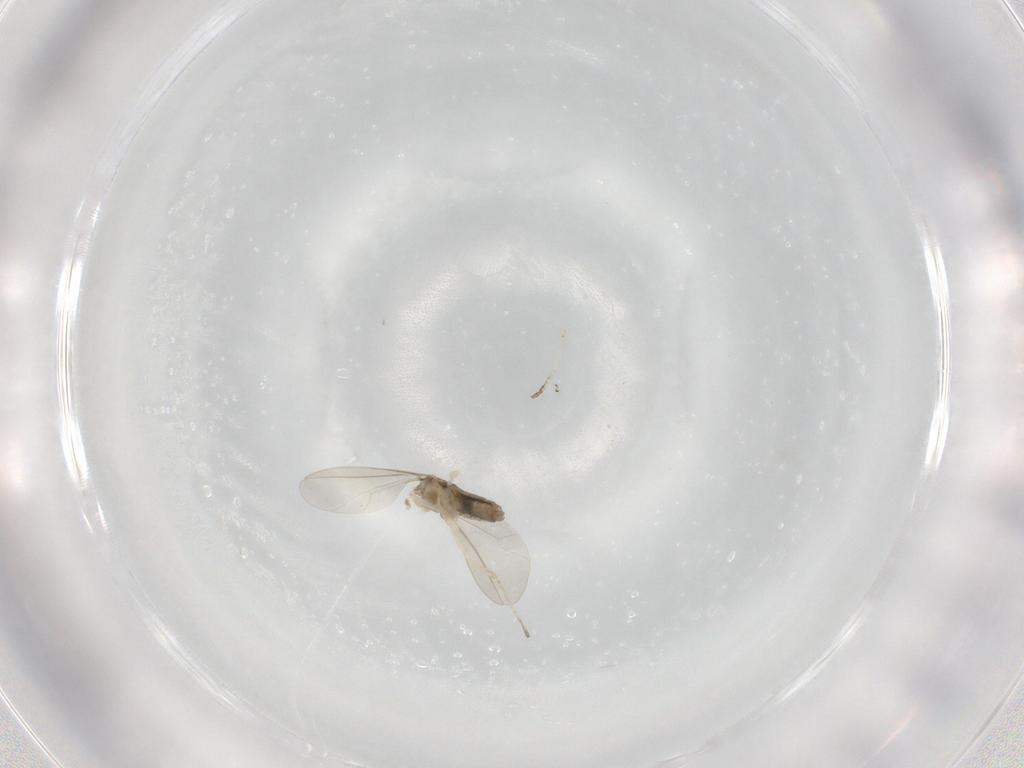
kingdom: Animalia
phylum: Arthropoda
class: Insecta
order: Diptera
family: Cecidomyiidae
